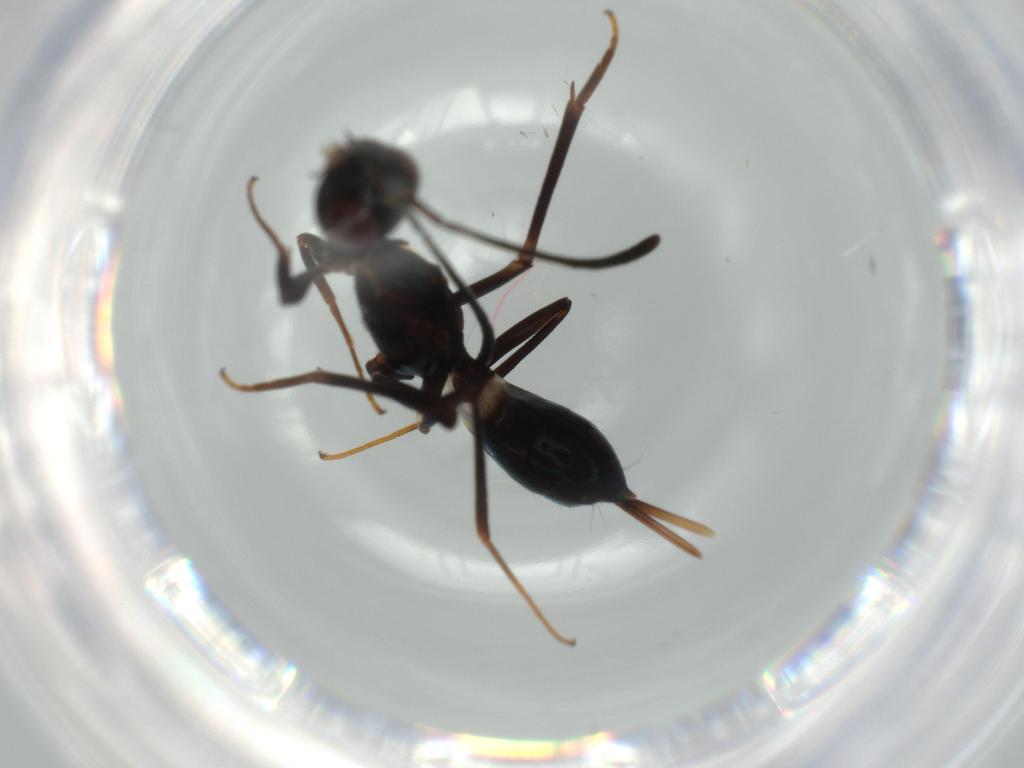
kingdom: Animalia
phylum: Arthropoda
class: Insecta
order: Hymenoptera
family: Eupelmidae
